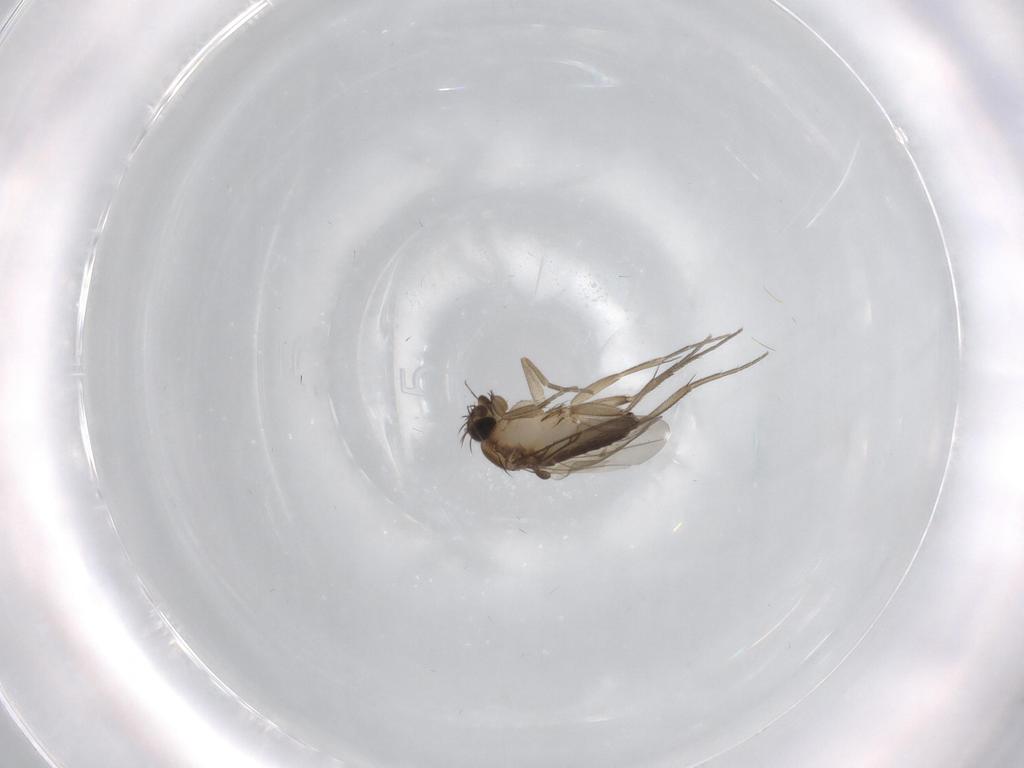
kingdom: Animalia
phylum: Arthropoda
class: Insecta
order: Diptera
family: Phoridae
